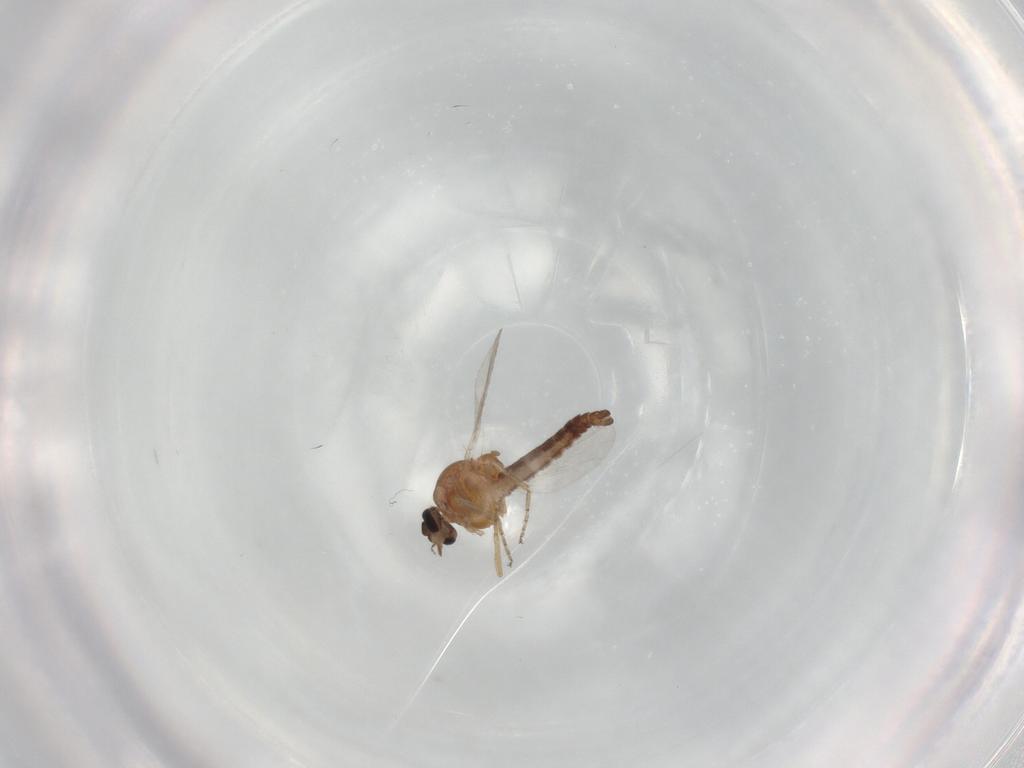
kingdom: Animalia
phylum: Arthropoda
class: Insecta
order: Diptera
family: Ceratopogonidae
